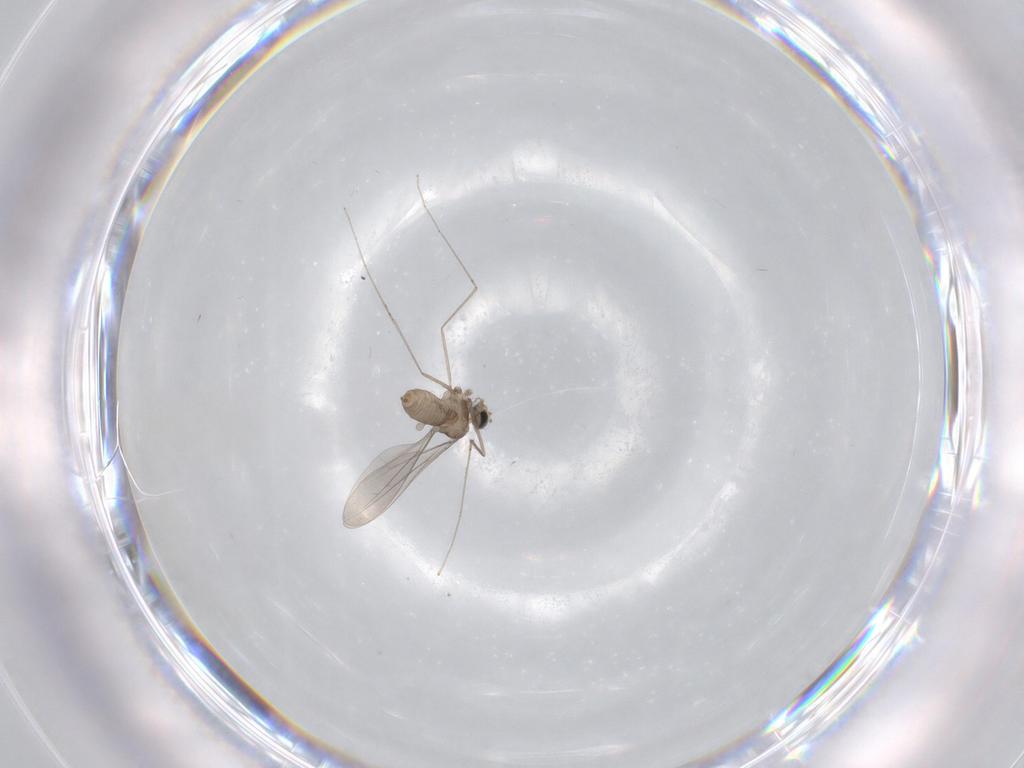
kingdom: Animalia
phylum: Arthropoda
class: Insecta
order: Diptera
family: Cecidomyiidae
